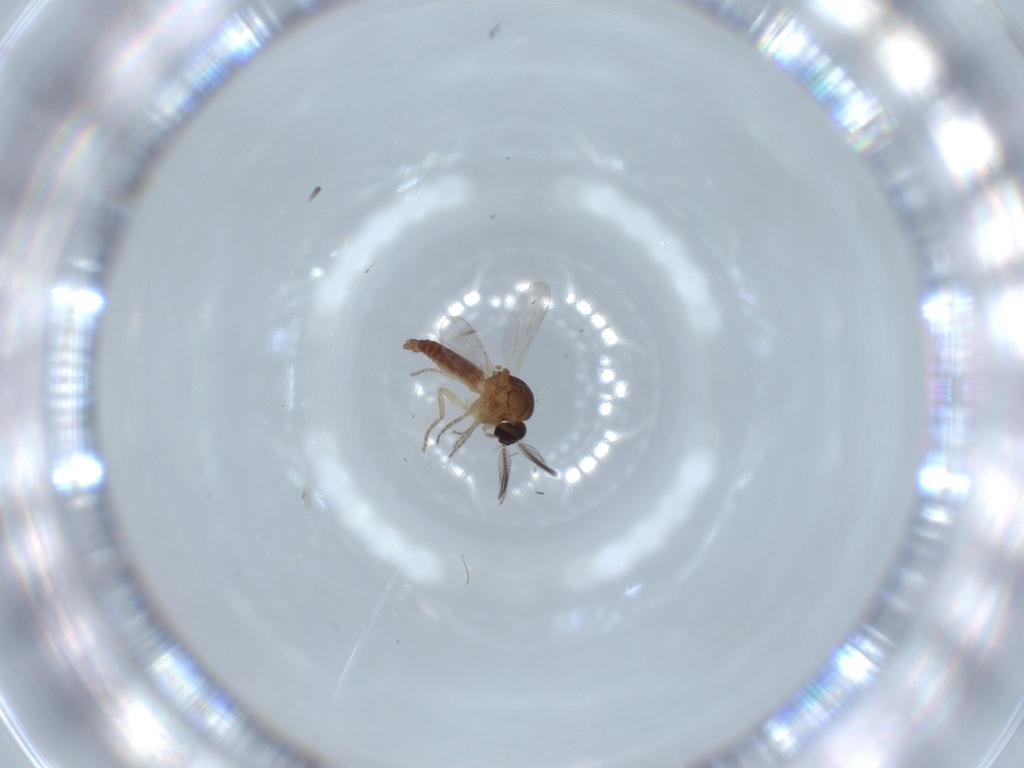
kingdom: Animalia
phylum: Arthropoda
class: Insecta
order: Diptera
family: Ceratopogonidae
